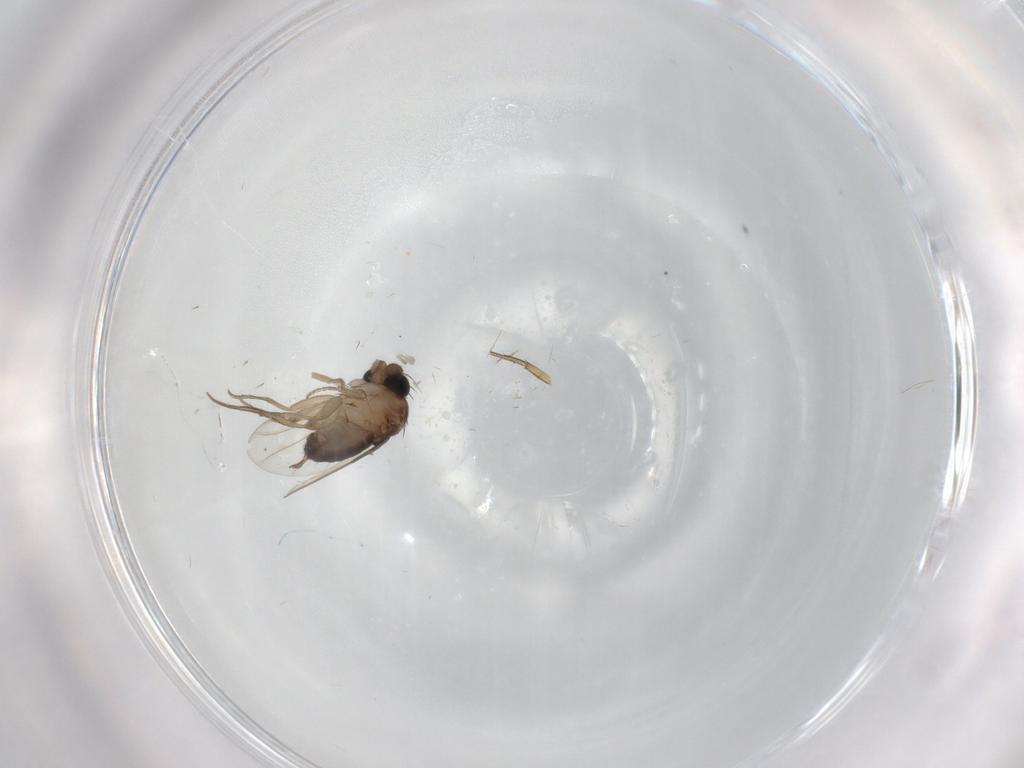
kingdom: Animalia
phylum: Arthropoda
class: Insecta
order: Diptera
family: Phoridae
